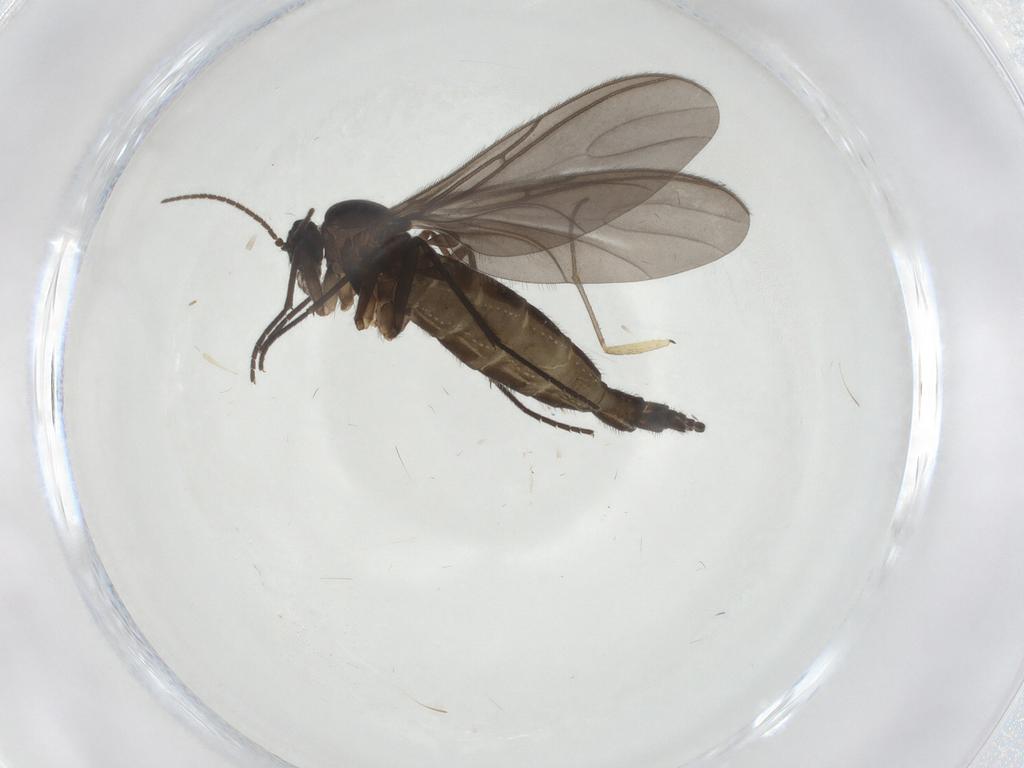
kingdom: Animalia
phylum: Arthropoda
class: Insecta
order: Diptera
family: Sciaridae
